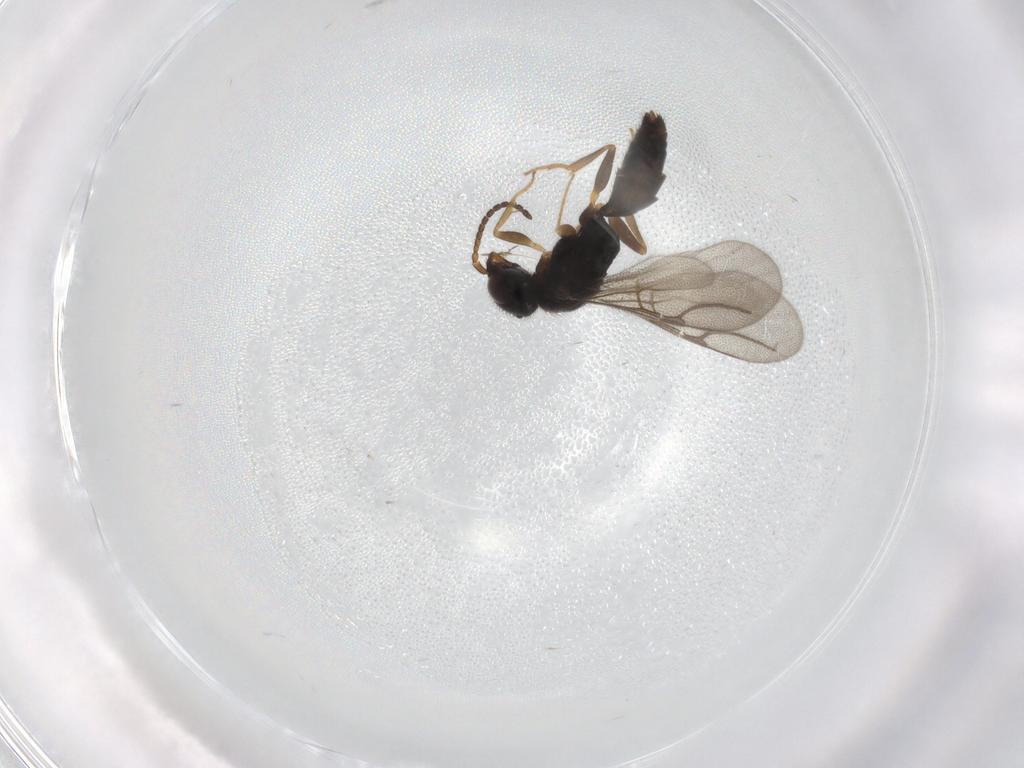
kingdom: Animalia
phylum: Arthropoda
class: Insecta
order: Hymenoptera
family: Bethylidae
